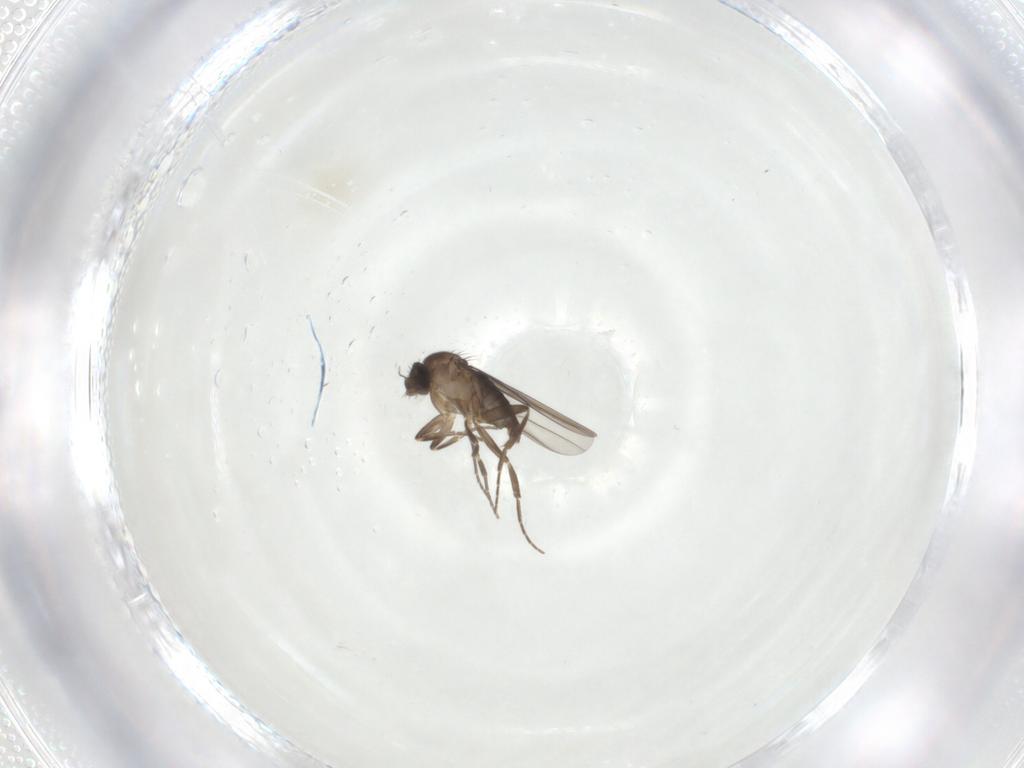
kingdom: Animalia
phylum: Arthropoda
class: Insecta
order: Diptera
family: Phoridae
